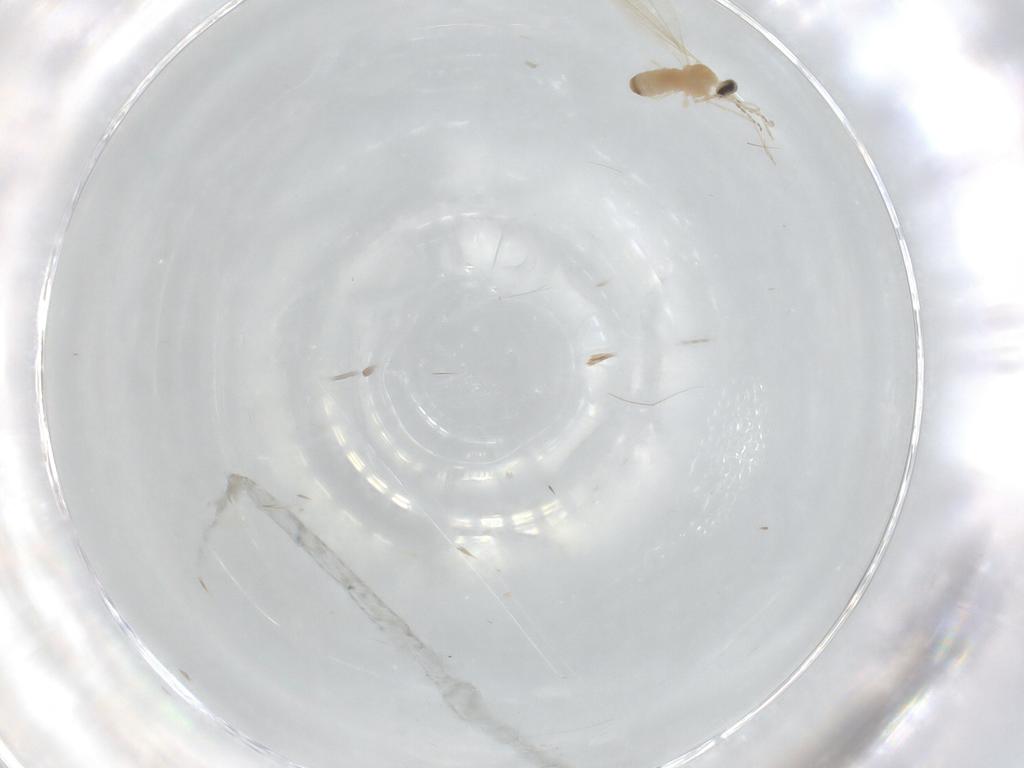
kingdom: Animalia
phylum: Arthropoda
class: Insecta
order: Diptera
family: Cecidomyiidae
